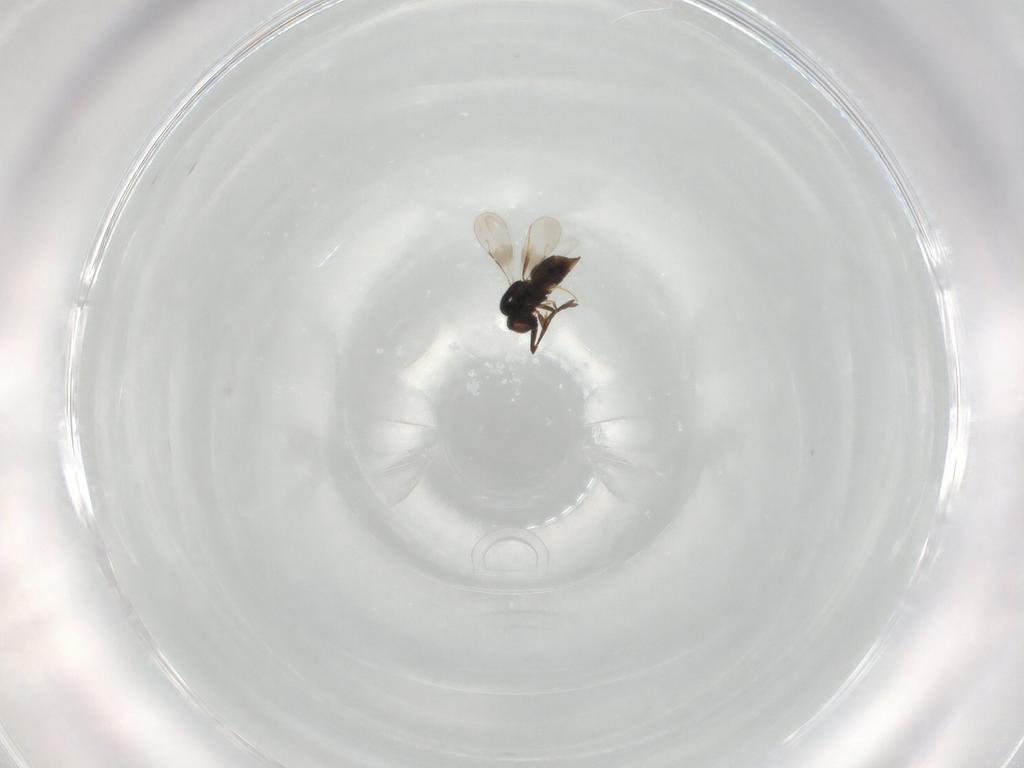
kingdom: Animalia
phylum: Arthropoda
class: Insecta
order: Hymenoptera
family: Ceraphronidae
